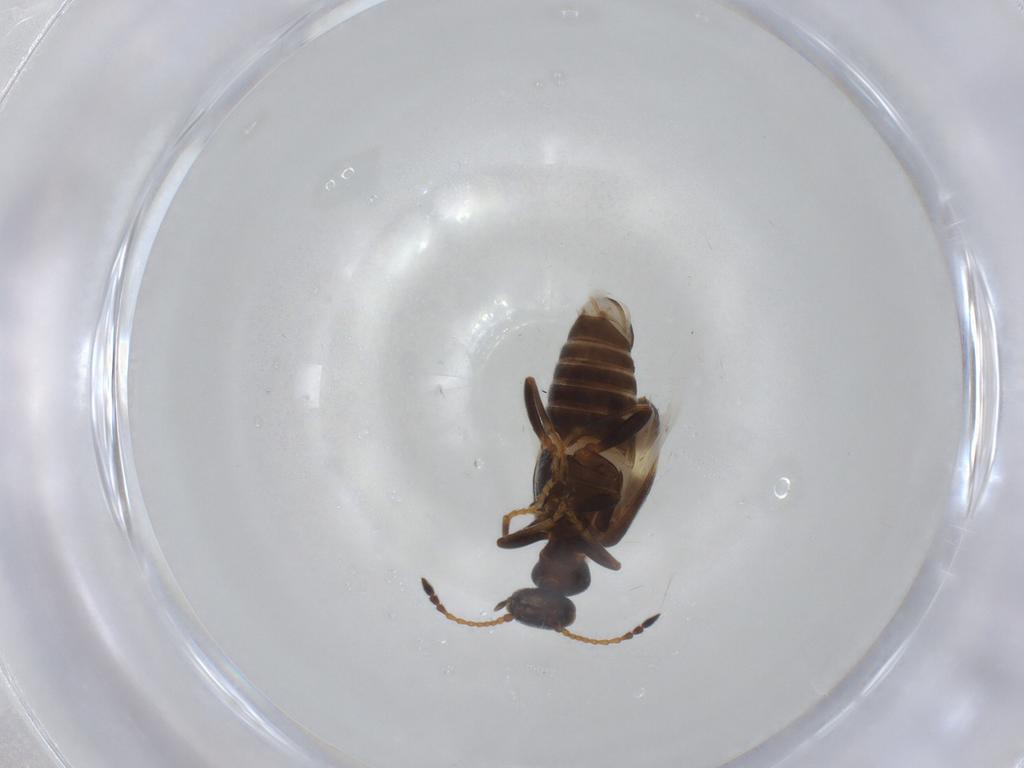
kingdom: Animalia
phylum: Arthropoda
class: Insecta
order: Coleoptera
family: Anthicidae
